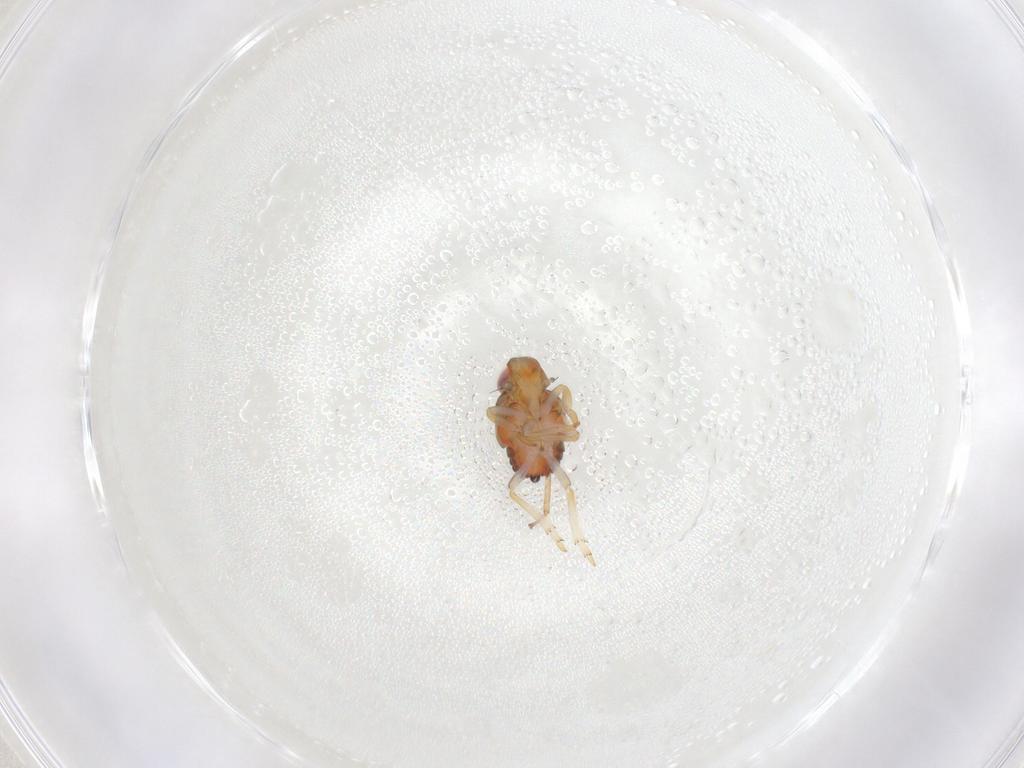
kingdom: Animalia
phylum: Arthropoda
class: Insecta
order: Hemiptera
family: Issidae
